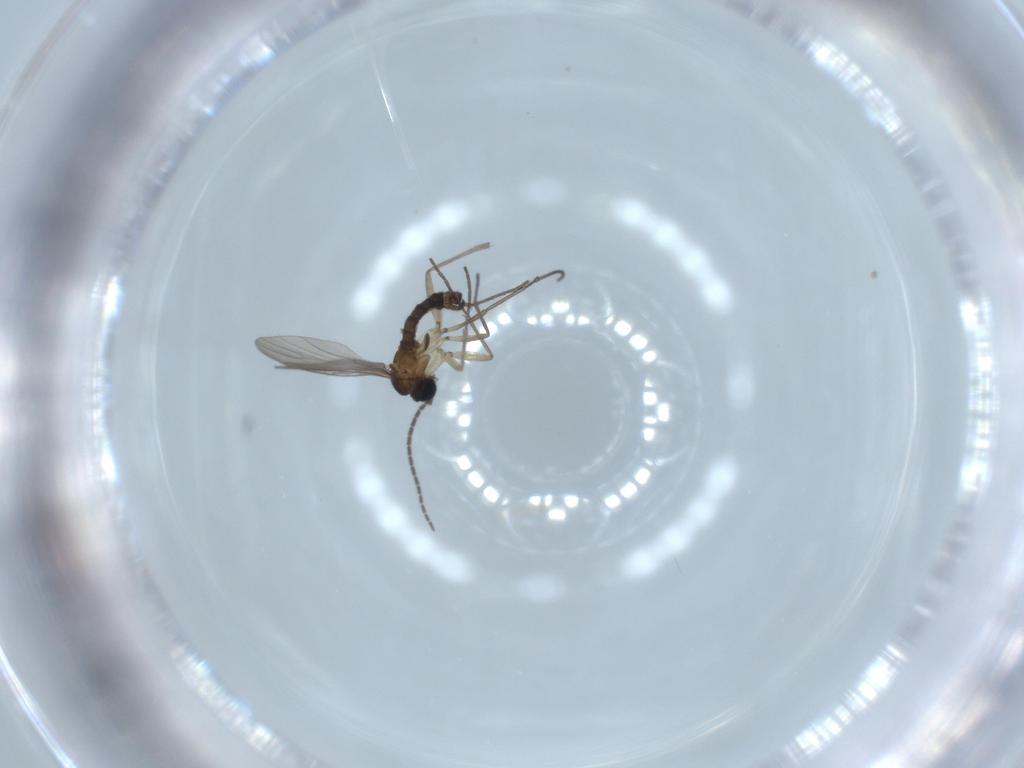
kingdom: Animalia
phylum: Arthropoda
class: Insecta
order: Diptera
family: Sciaridae
